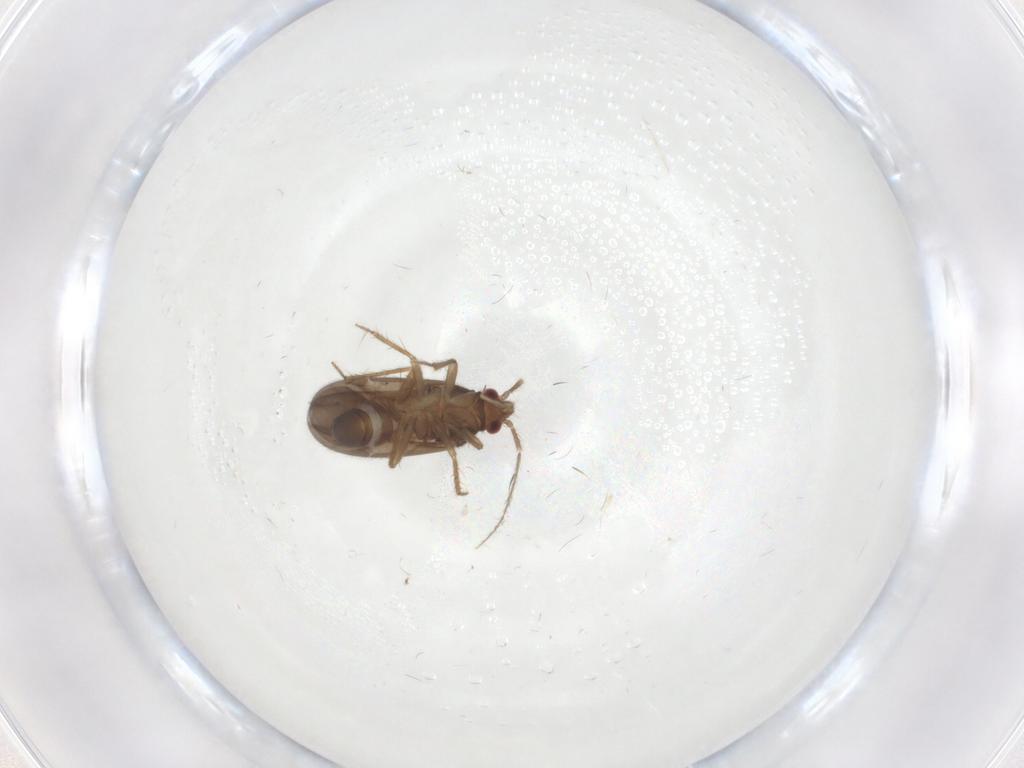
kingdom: Animalia
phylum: Arthropoda
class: Insecta
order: Hemiptera
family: Ceratocombidae
